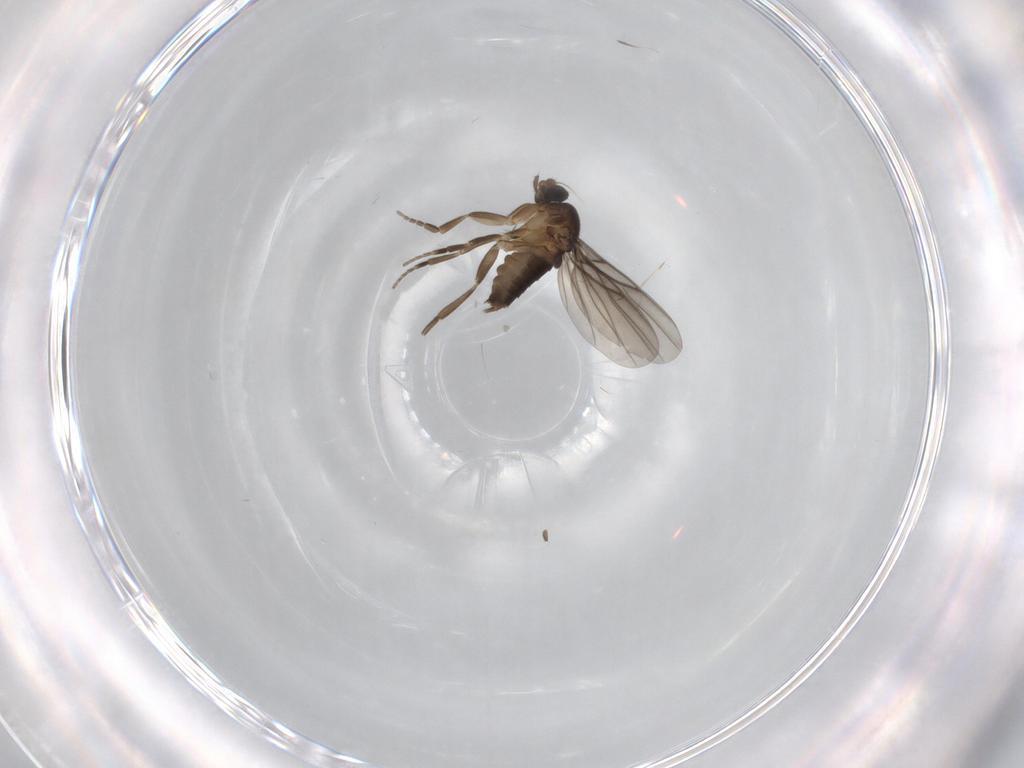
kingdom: Animalia
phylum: Arthropoda
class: Insecta
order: Diptera
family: Phoridae
